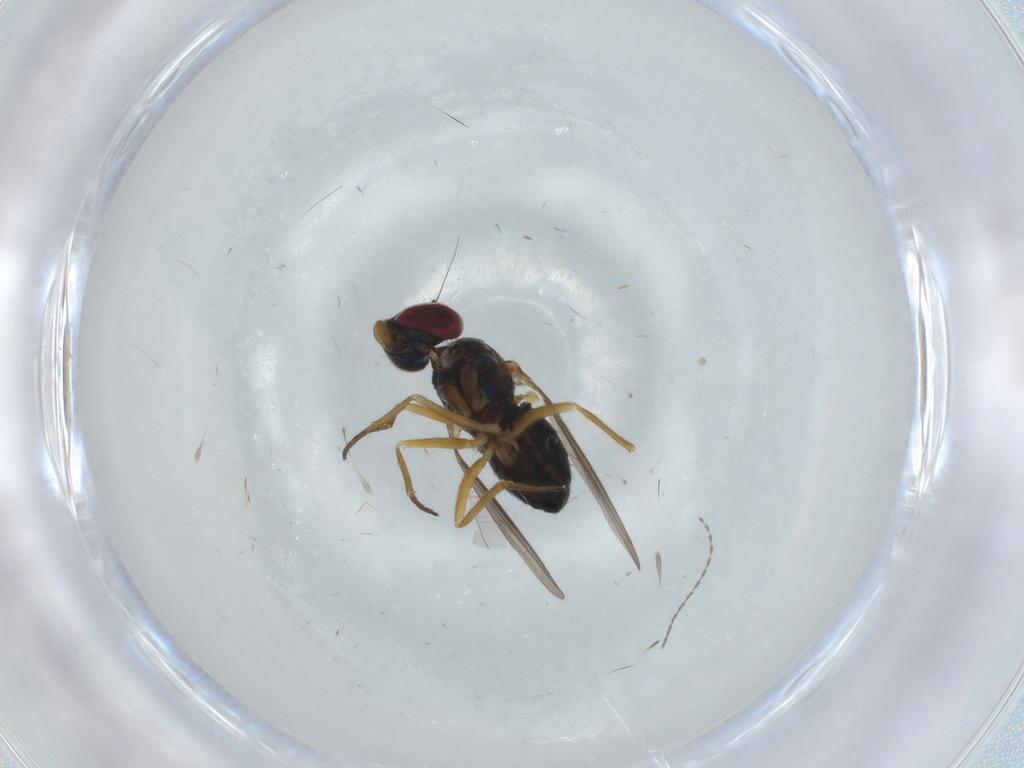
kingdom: Animalia
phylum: Arthropoda
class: Insecta
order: Diptera
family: Dolichopodidae
